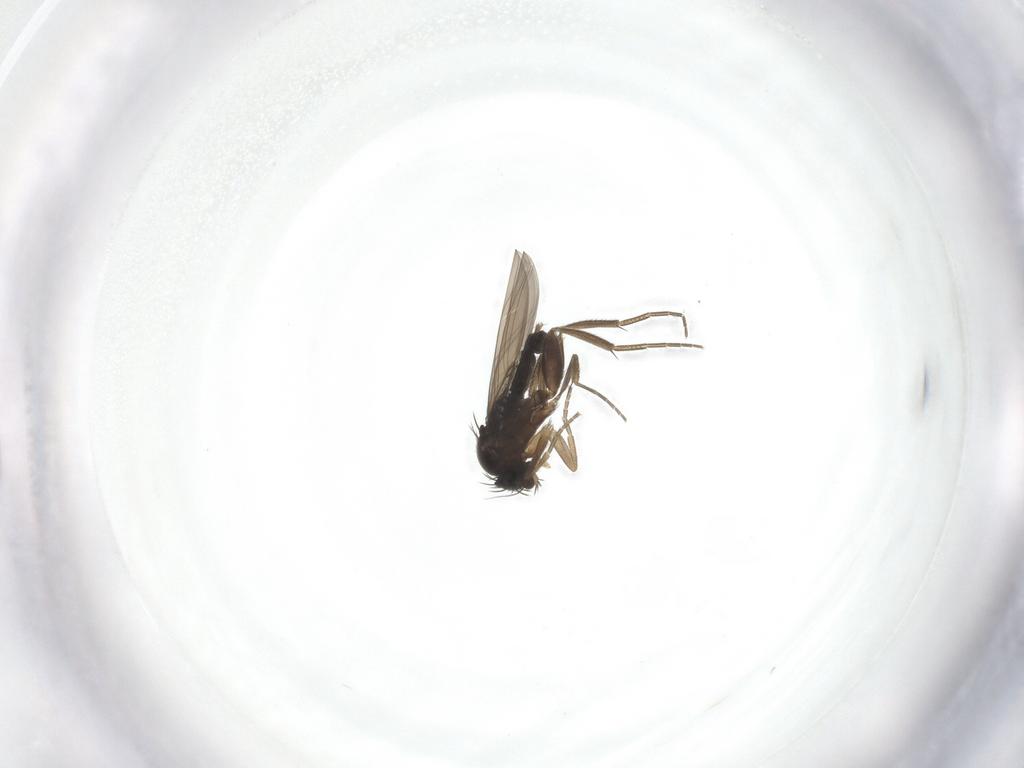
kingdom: Animalia
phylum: Arthropoda
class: Insecta
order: Diptera
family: Phoridae
